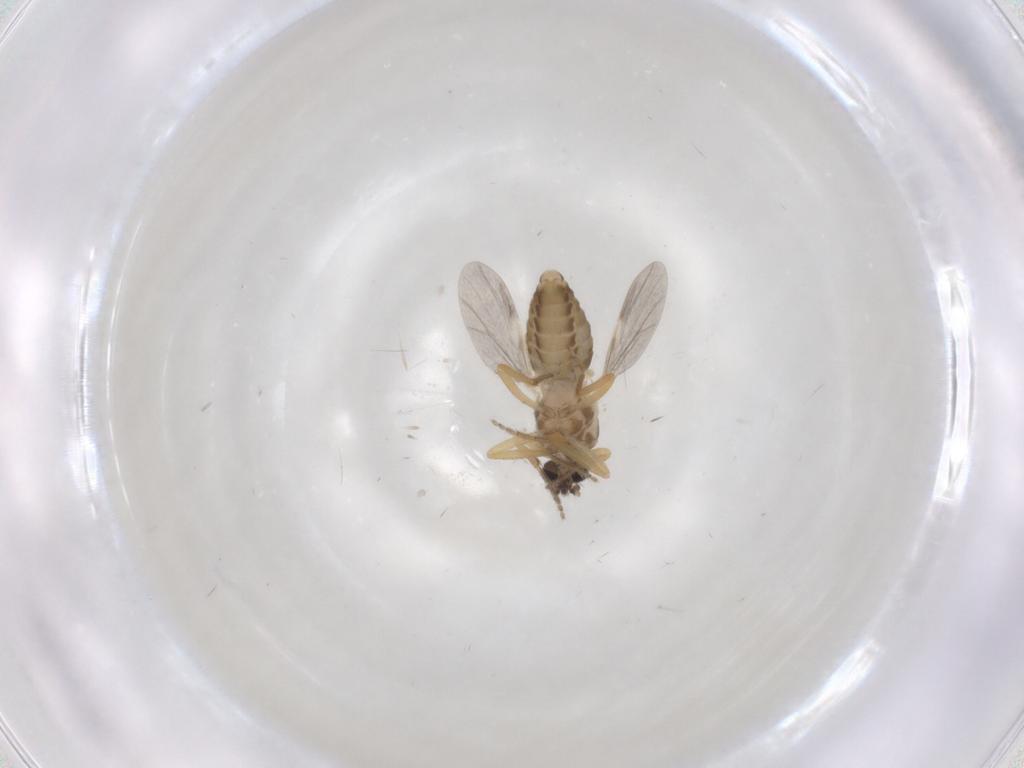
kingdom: Animalia
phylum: Arthropoda
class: Insecta
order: Diptera
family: Ceratopogonidae
